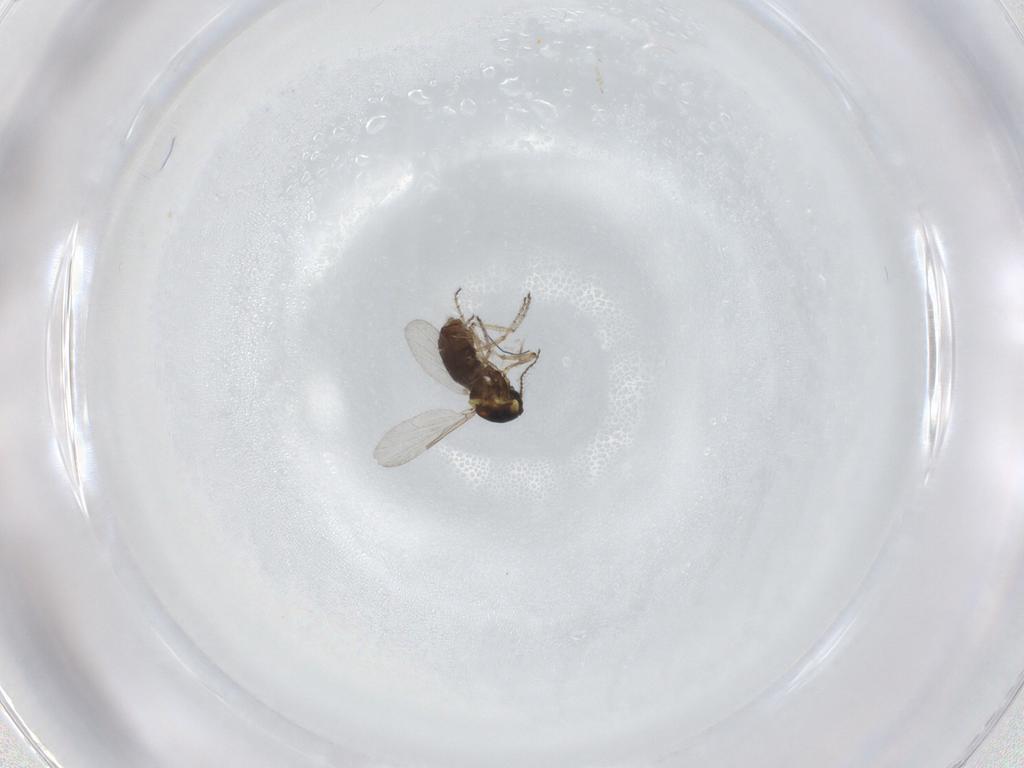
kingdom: Animalia
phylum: Arthropoda
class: Insecta
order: Diptera
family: Ceratopogonidae
